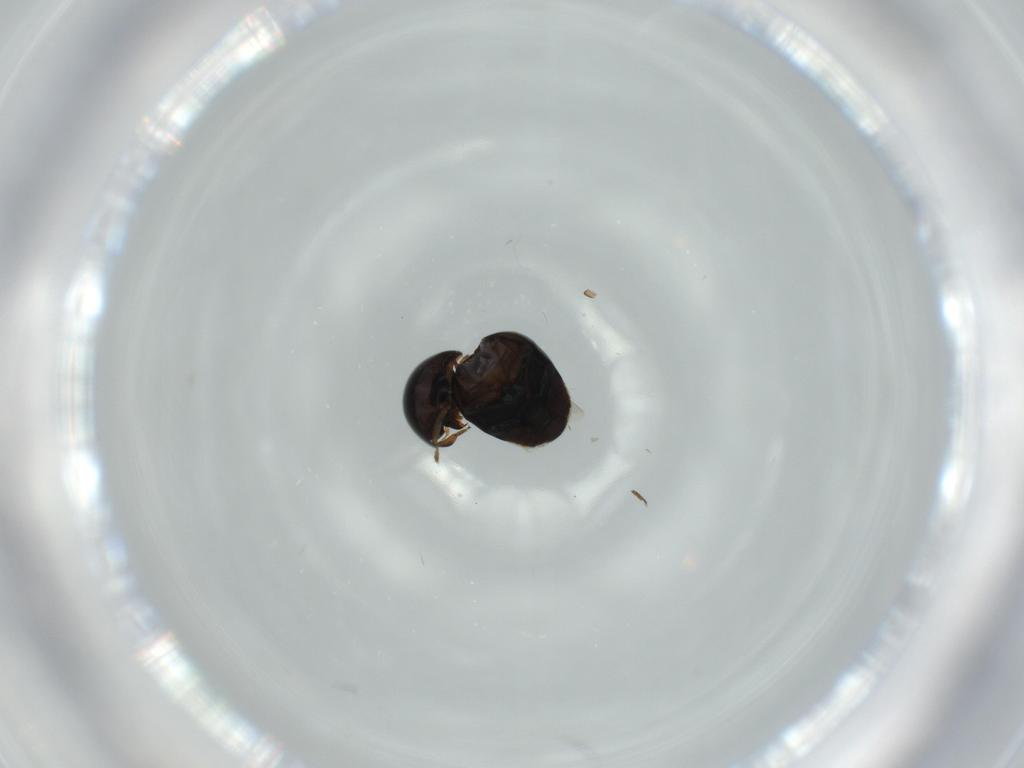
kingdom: Animalia
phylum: Arthropoda
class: Insecta
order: Coleoptera
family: Cybocephalidae
